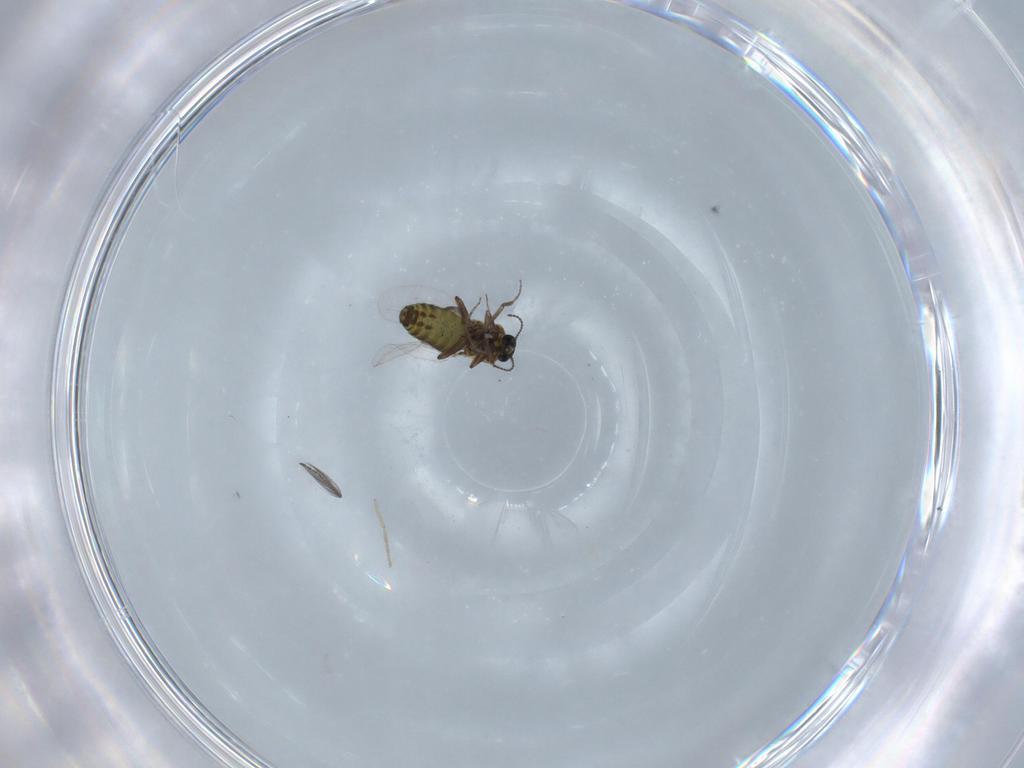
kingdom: Animalia
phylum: Arthropoda
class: Insecta
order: Diptera
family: Ceratopogonidae
